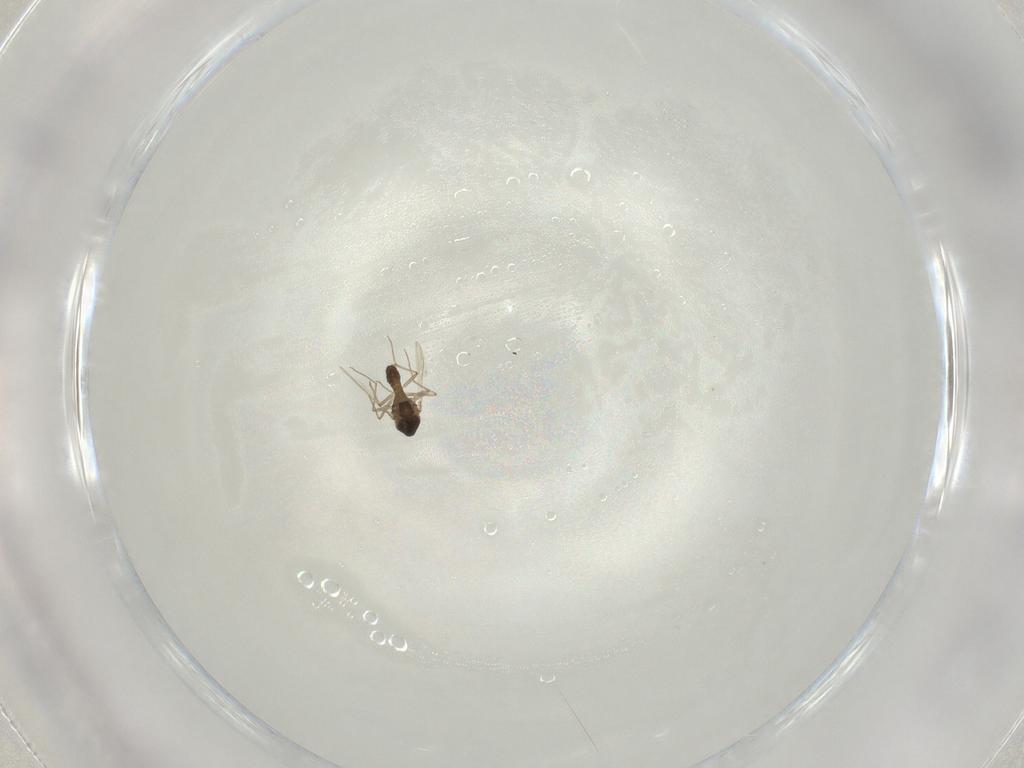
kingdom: Animalia
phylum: Arthropoda
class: Insecta
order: Diptera
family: Chironomidae
